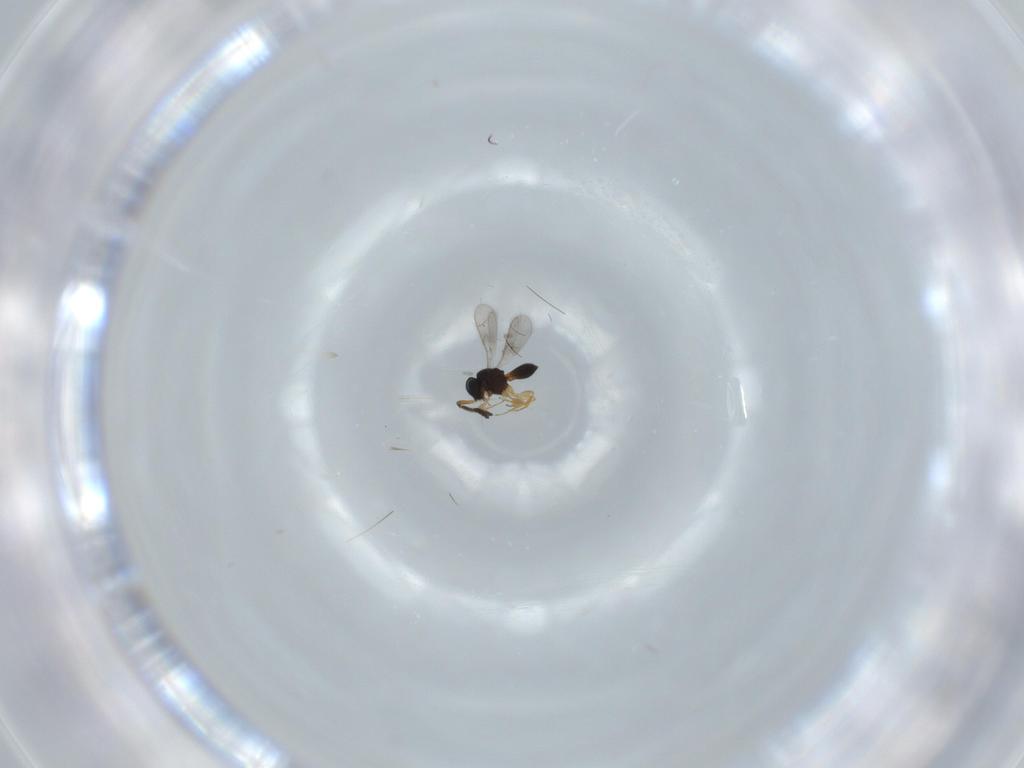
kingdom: Animalia
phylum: Arthropoda
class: Insecta
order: Hymenoptera
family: Scelionidae
